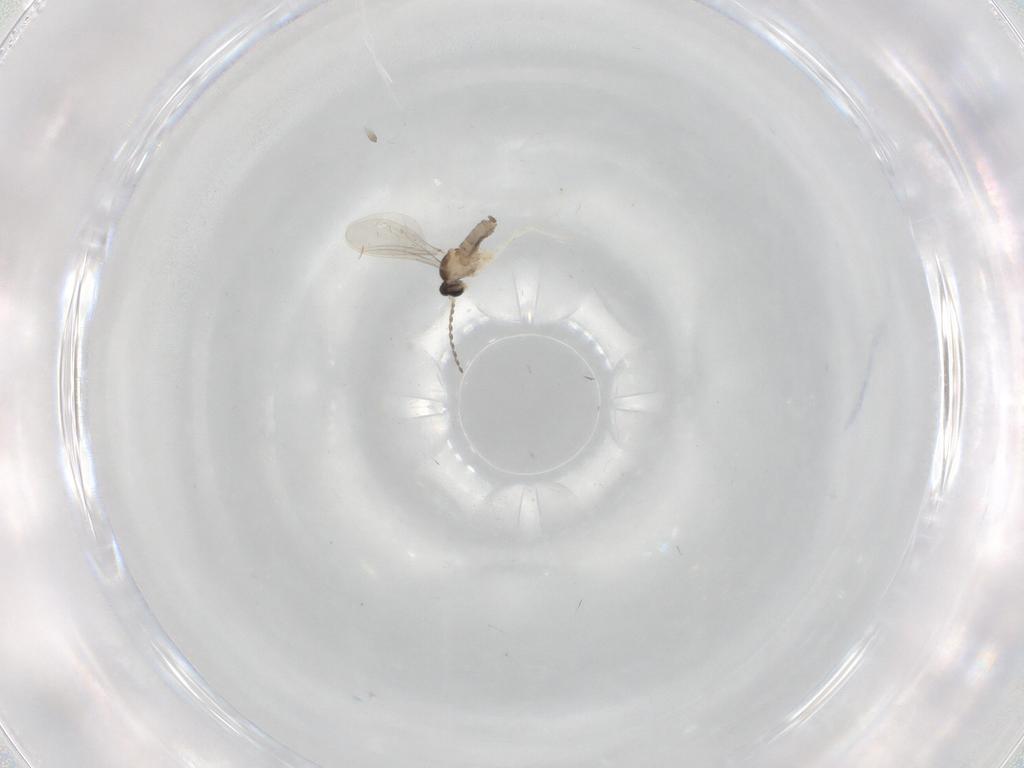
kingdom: Animalia
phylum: Arthropoda
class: Insecta
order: Diptera
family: Cecidomyiidae
